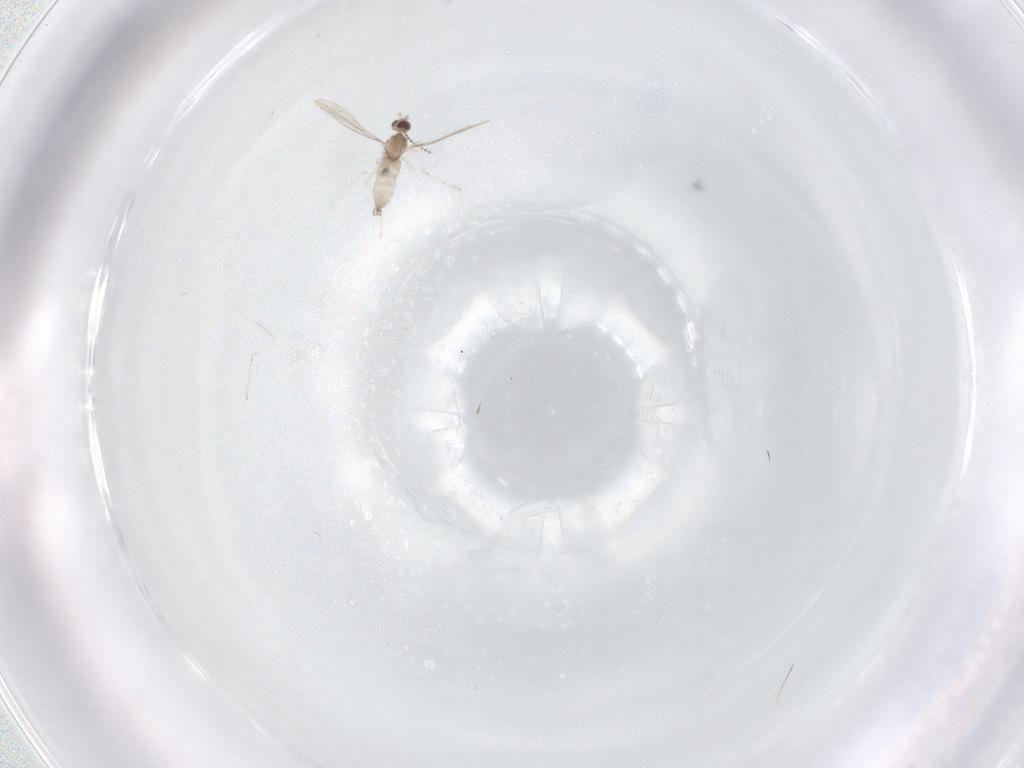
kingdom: Animalia
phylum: Arthropoda
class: Insecta
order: Diptera
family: Cecidomyiidae
